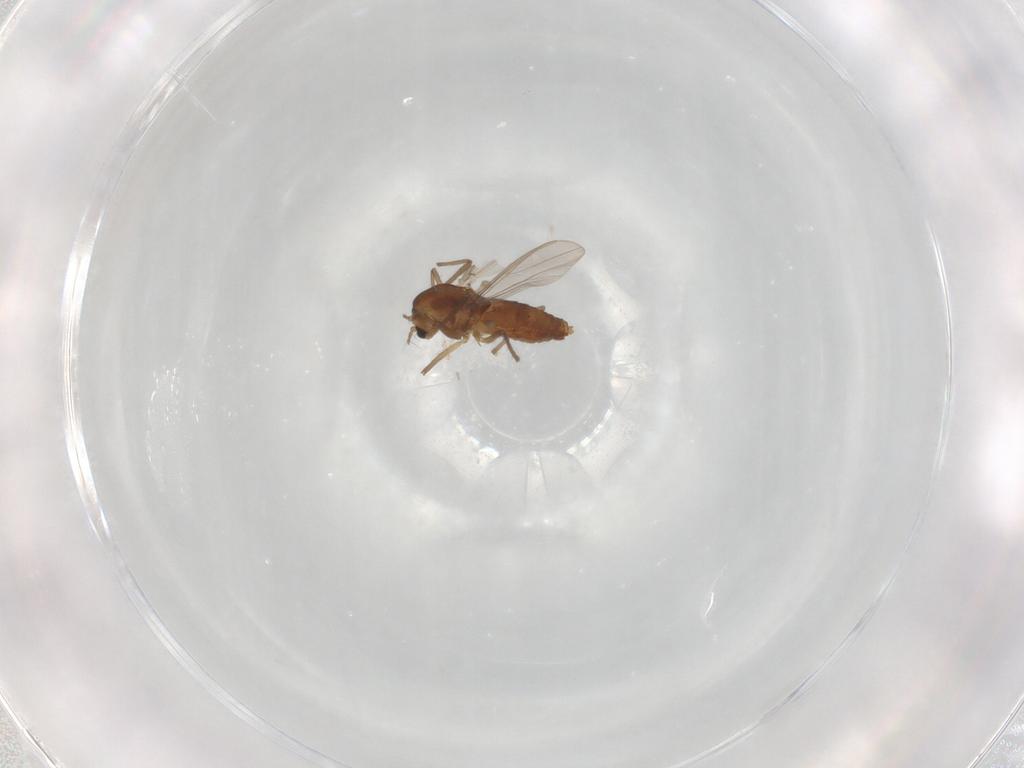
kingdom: Animalia
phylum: Arthropoda
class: Insecta
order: Diptera
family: Chironomidae
